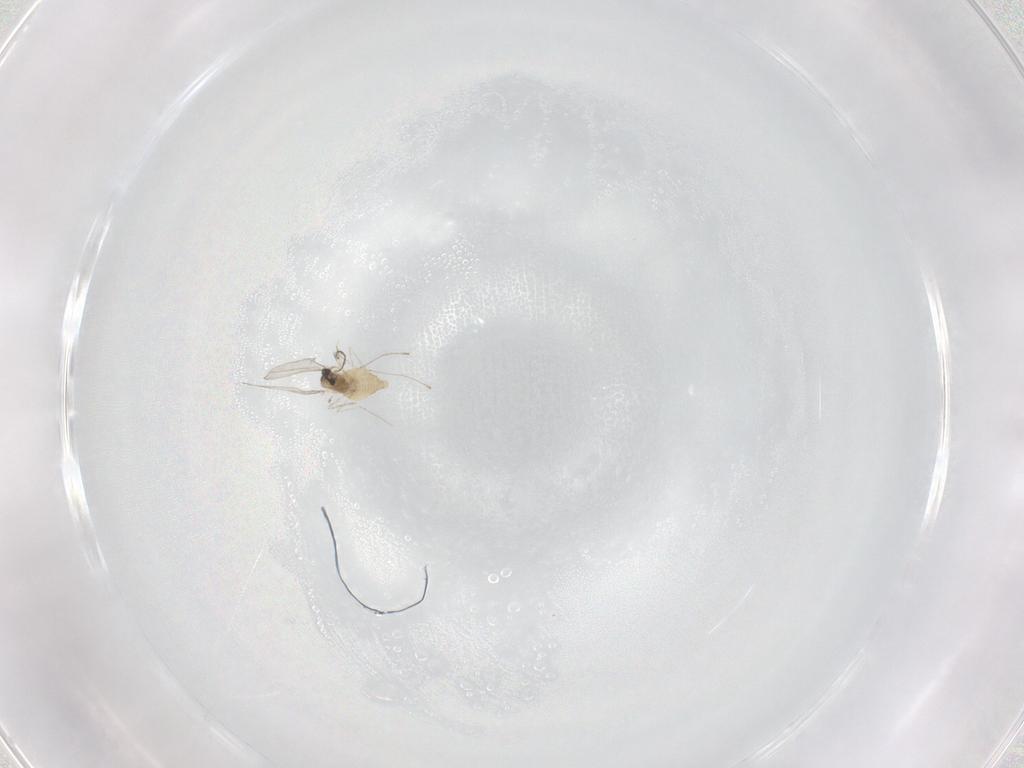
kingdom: Animalia
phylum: Arthropoda
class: Insecta
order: Diptera
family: Cecidomyiidae
